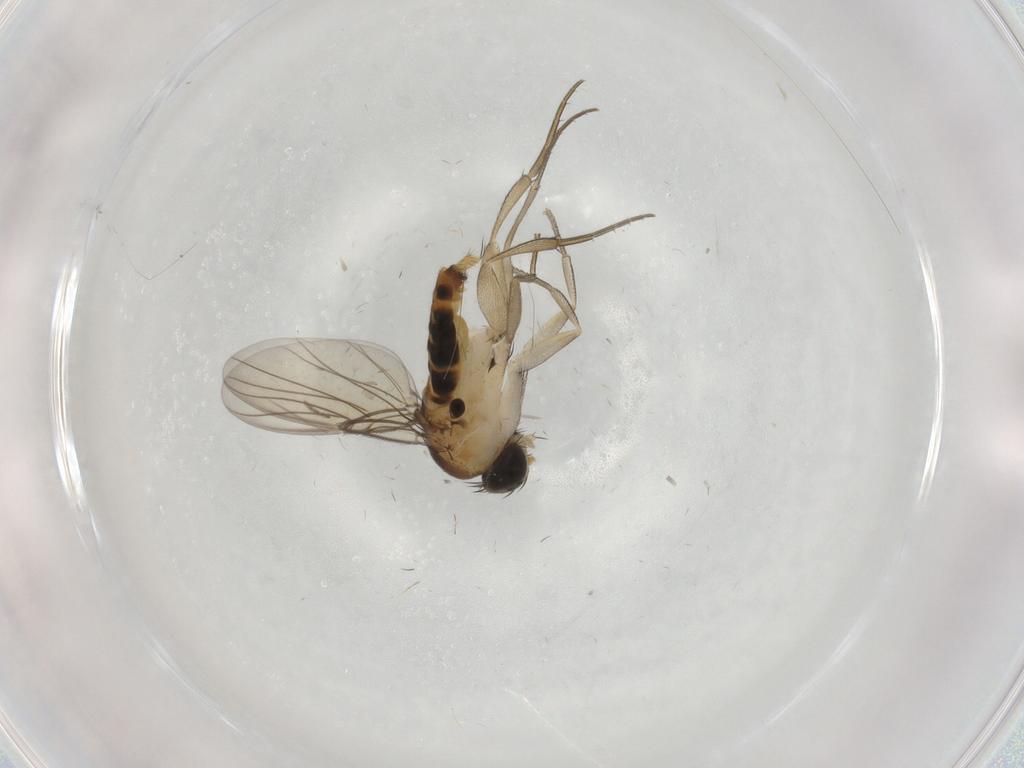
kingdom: Animalia
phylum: Arthropoda
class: Insecta
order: Diptera
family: Phoridae
